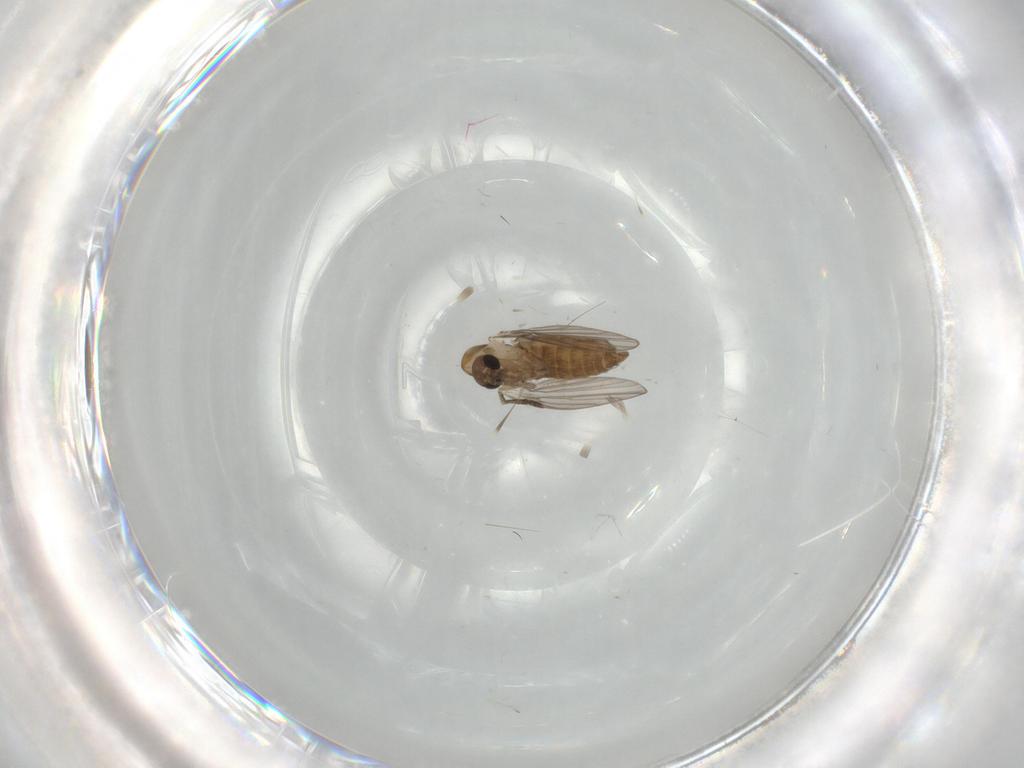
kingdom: Animalia
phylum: Arthropoda
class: Insecta
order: Diptera
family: Psychodidae
